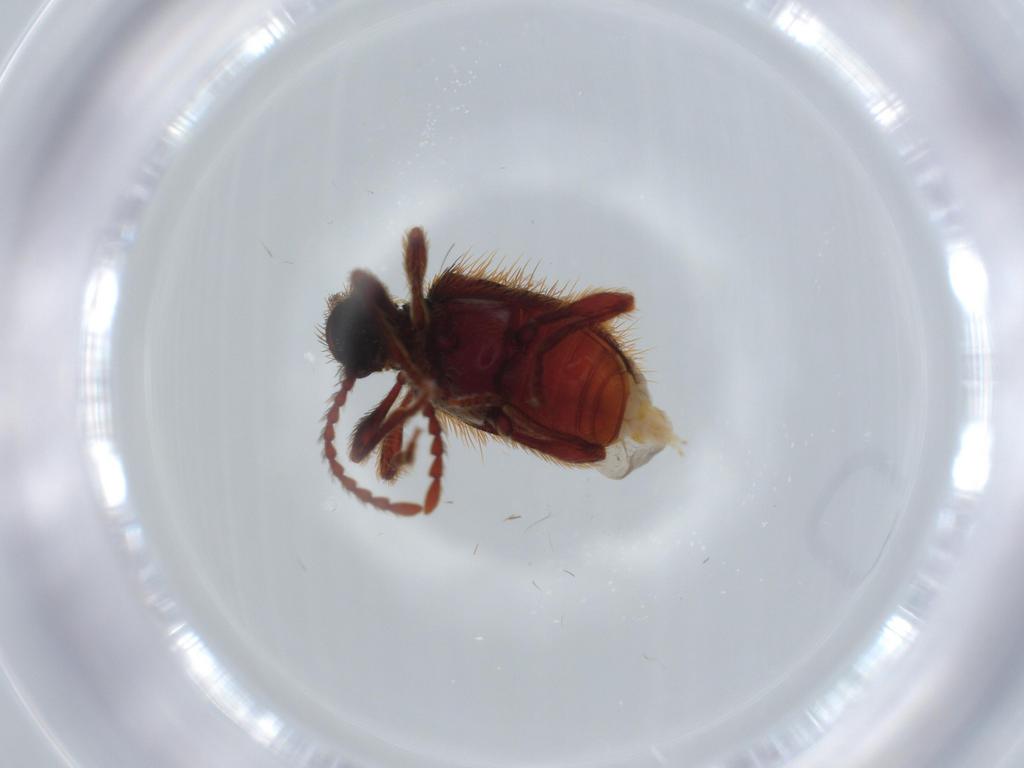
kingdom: Animalia
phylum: Arthropoda
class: Insecta
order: Coleoptera
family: Ptinidae
